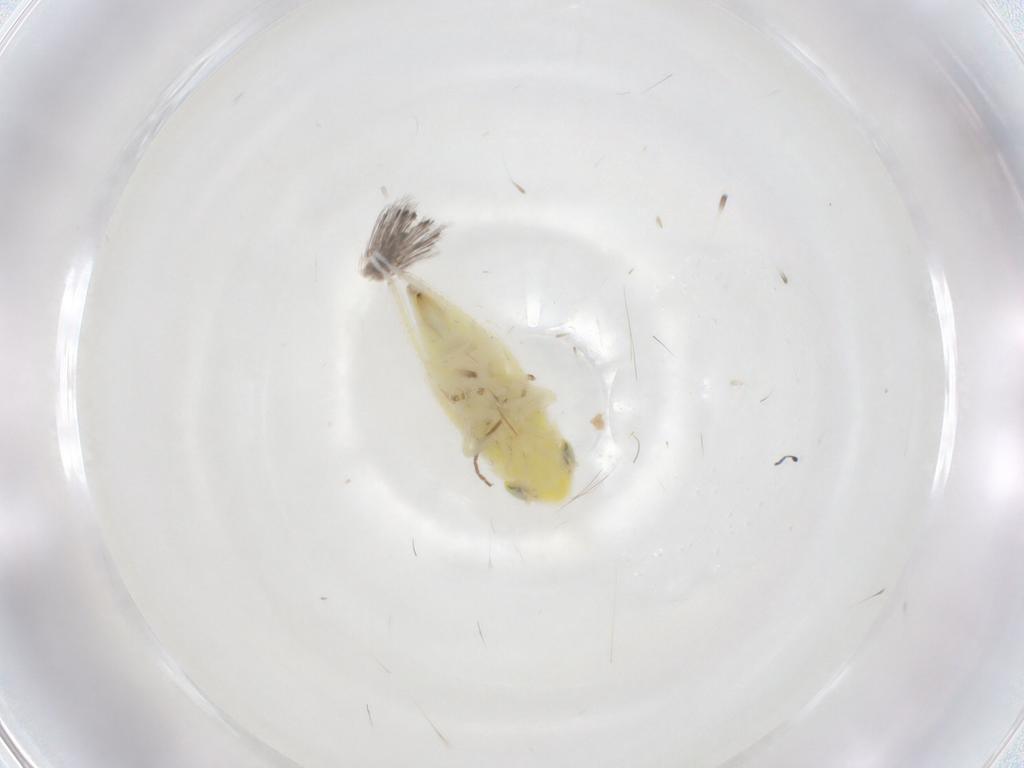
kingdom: Animalia
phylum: Arthropoda
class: Insecta
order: Hemiptera
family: Cicadellidae
